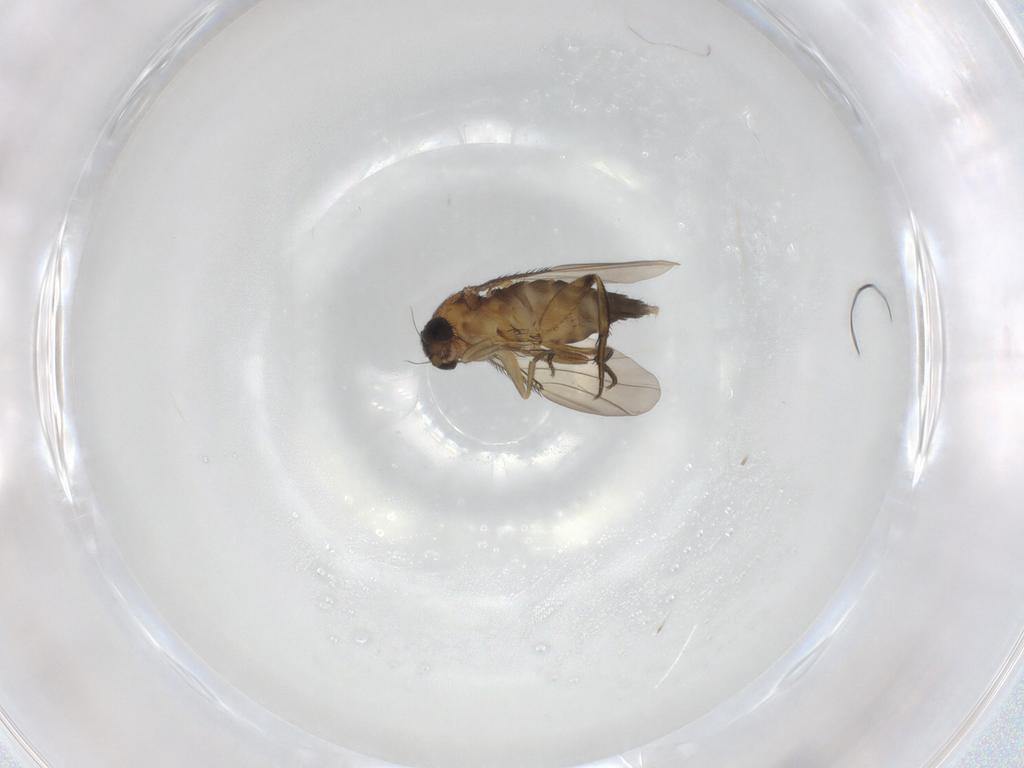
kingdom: Animalia
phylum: Arthropoda
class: Insecta
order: Diptera
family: Phoridae
